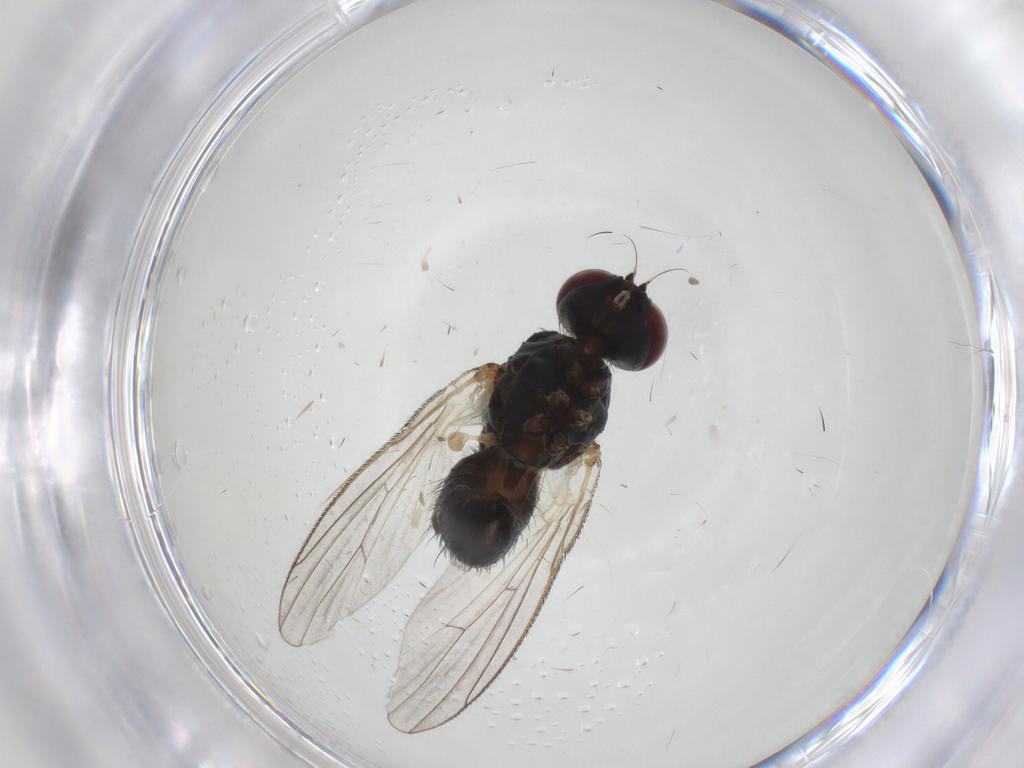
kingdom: Animalia
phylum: Arthropoda
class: Insecta
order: Diptera
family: Muscidae
